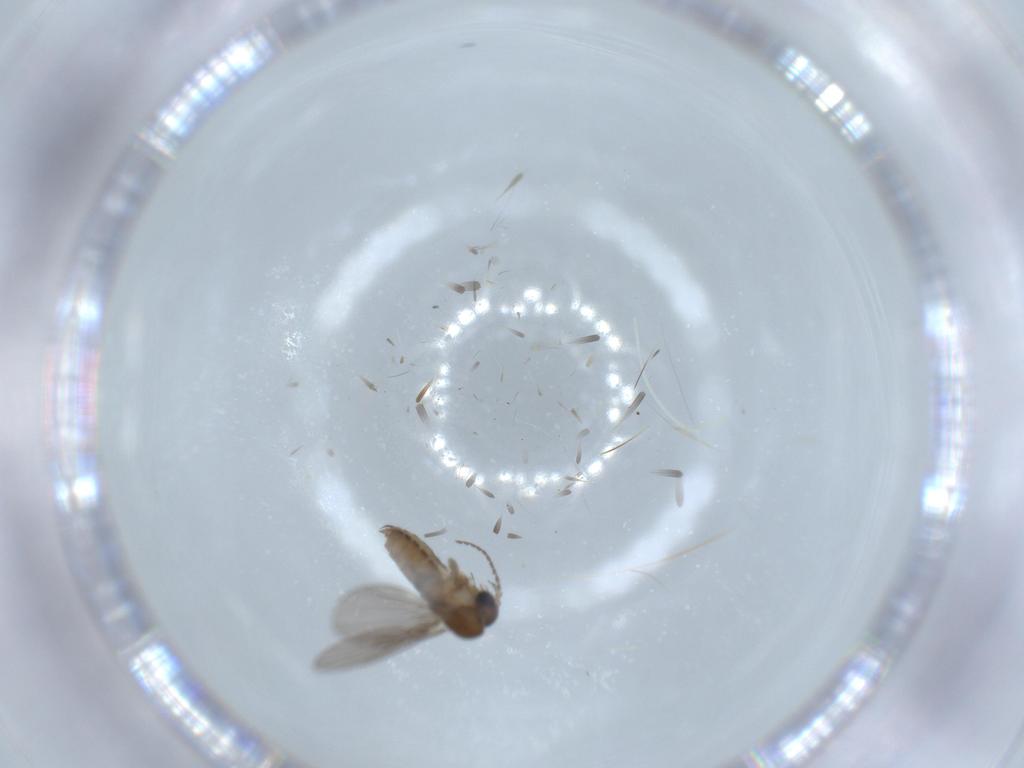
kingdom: Animalia
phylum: Arthropoda
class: Insecta
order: Diptera
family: Psychodidae
